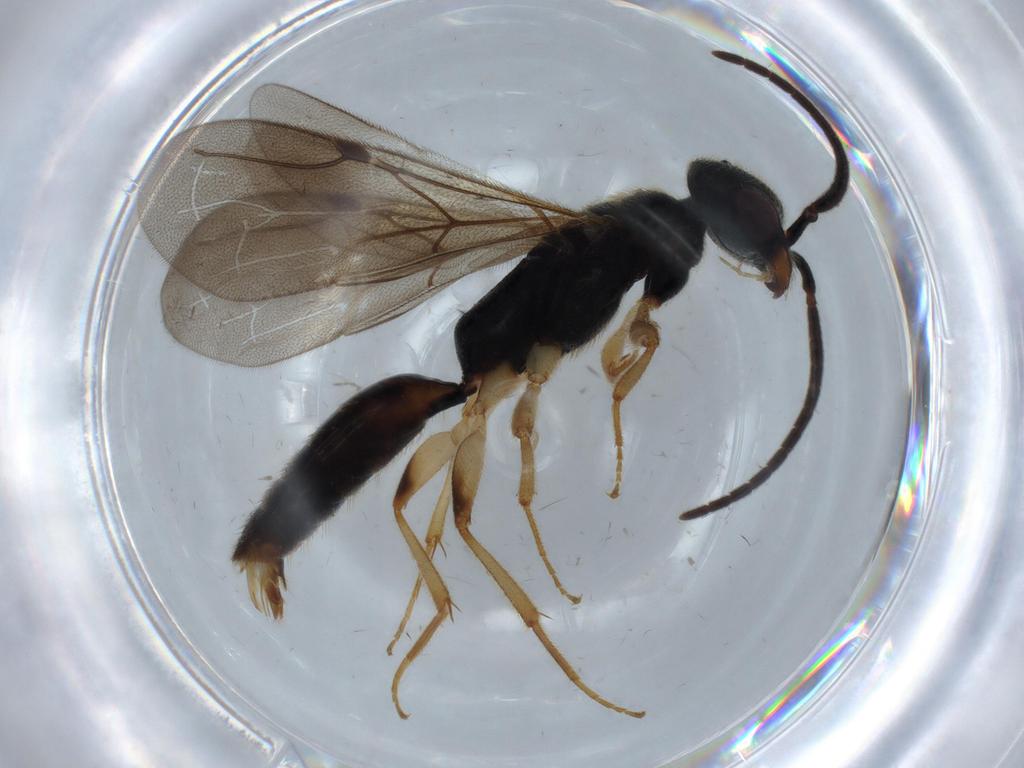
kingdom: Animalia
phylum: Arthropoda
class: Insecta
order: Hymenoptera
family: Bethylidae
